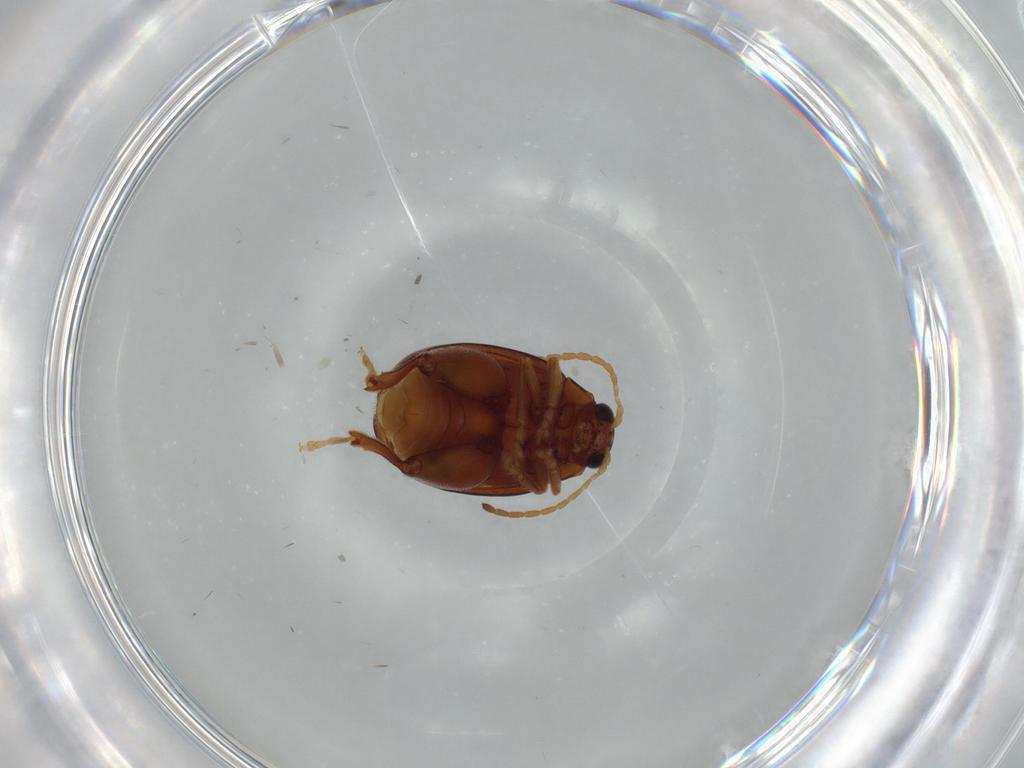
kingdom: Animalia
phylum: Arthropoda
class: Insecta
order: Coleoptera
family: Chrysomelidae
